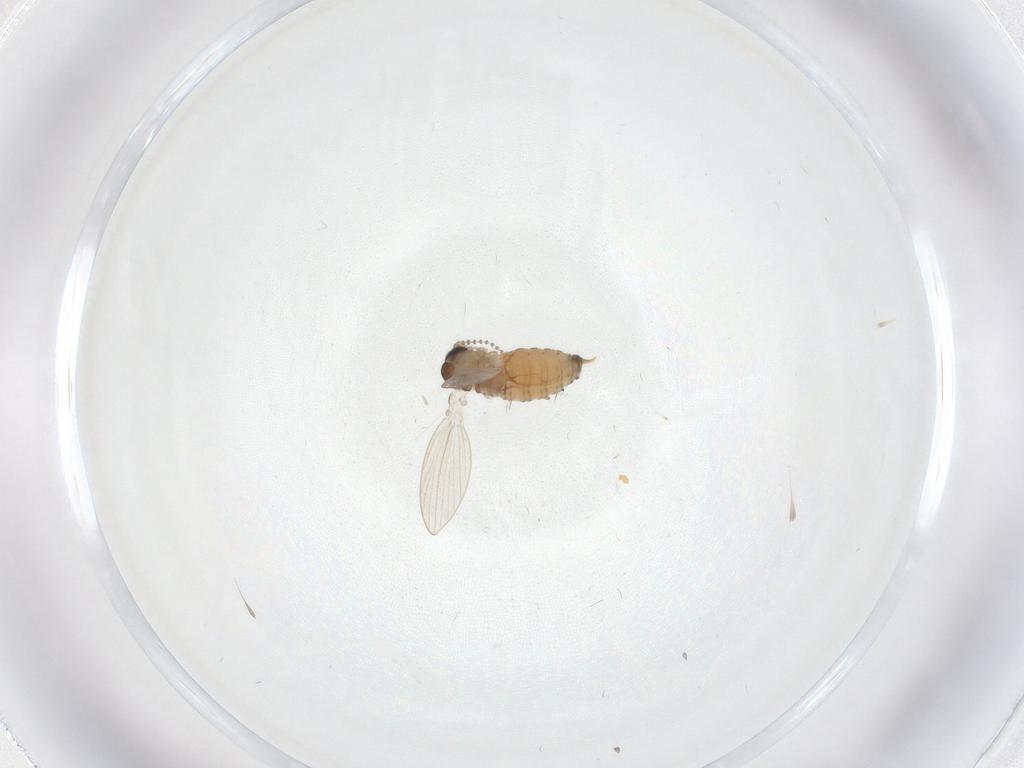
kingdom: Animalia
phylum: Arthropoda
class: Insecta
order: Diptera
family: Psychodidae
